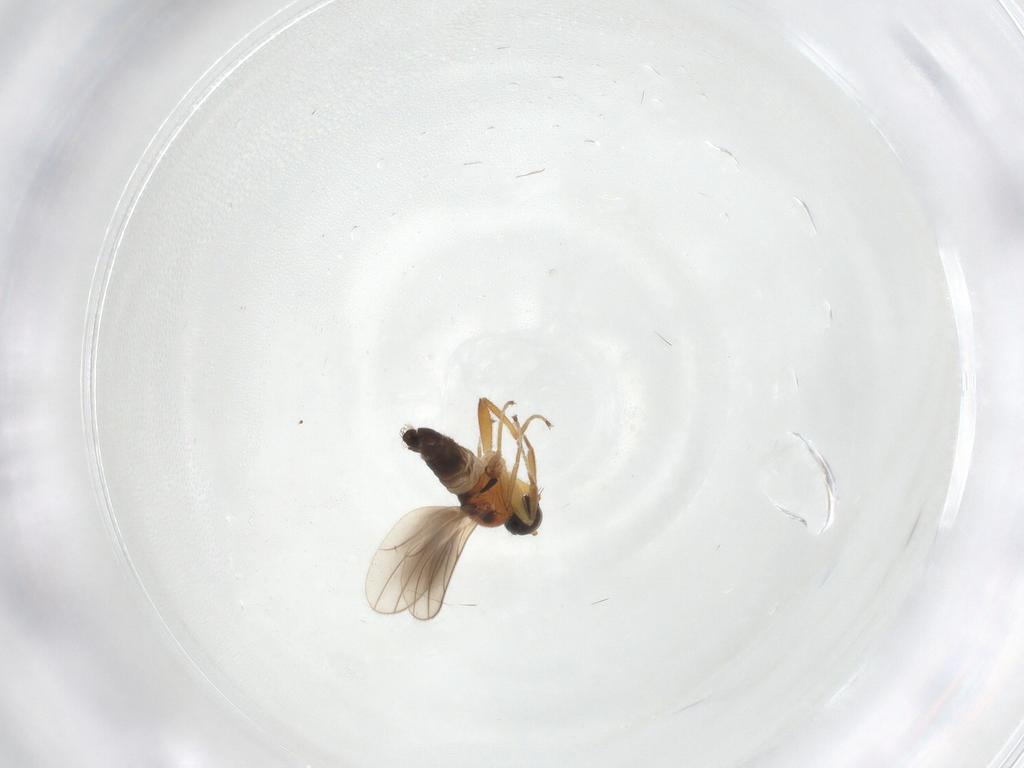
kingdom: Animalia
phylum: Arthropoda
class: Insecta
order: Diptera
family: Hybotidae
